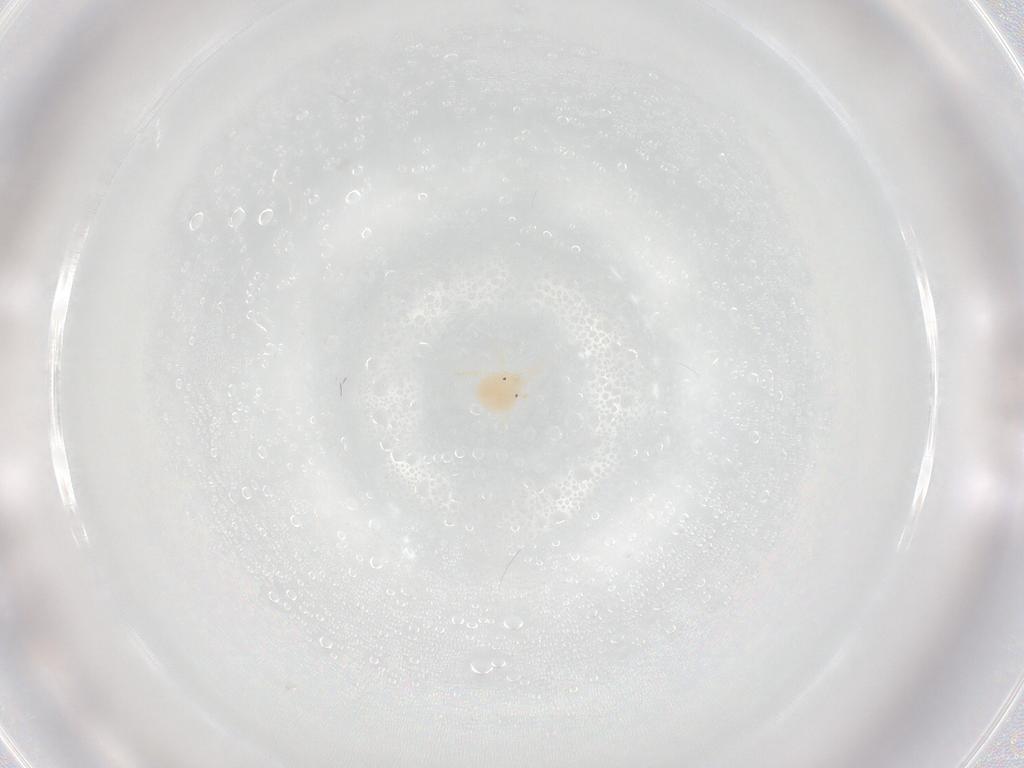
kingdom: Animalia
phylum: Arthropoda
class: Arachnida
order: Trombidiformes
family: Sperchontidae
